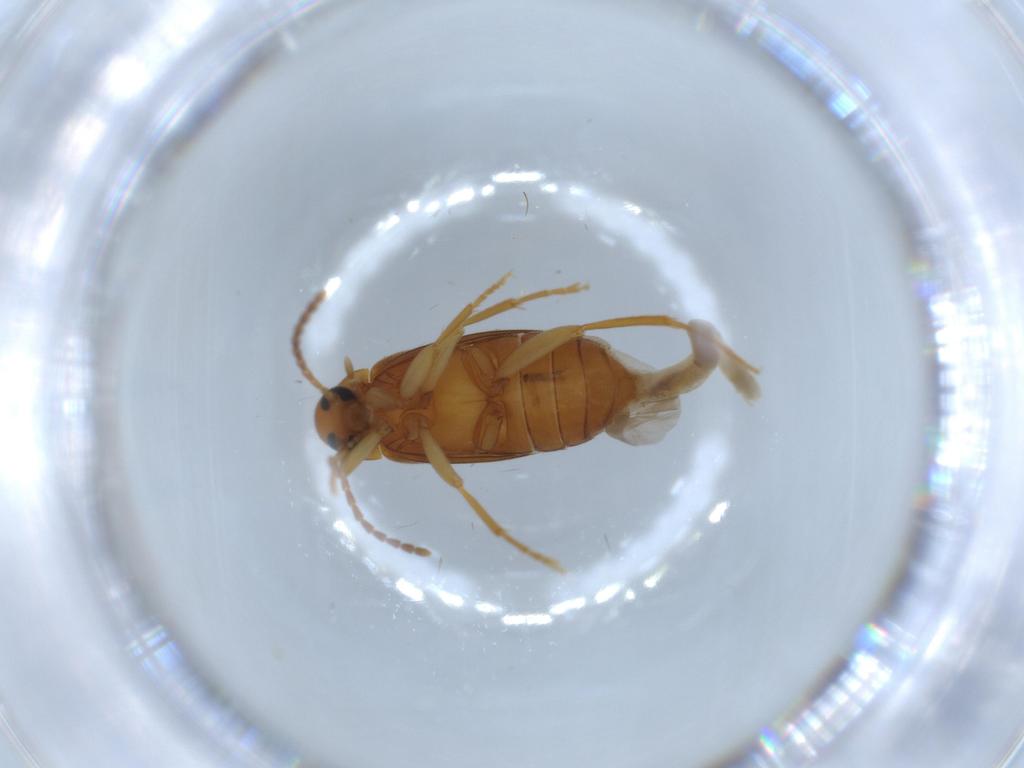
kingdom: Animalia
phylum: Arthropoda
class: Insecta
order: Coleoptera
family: Scraptiidae
